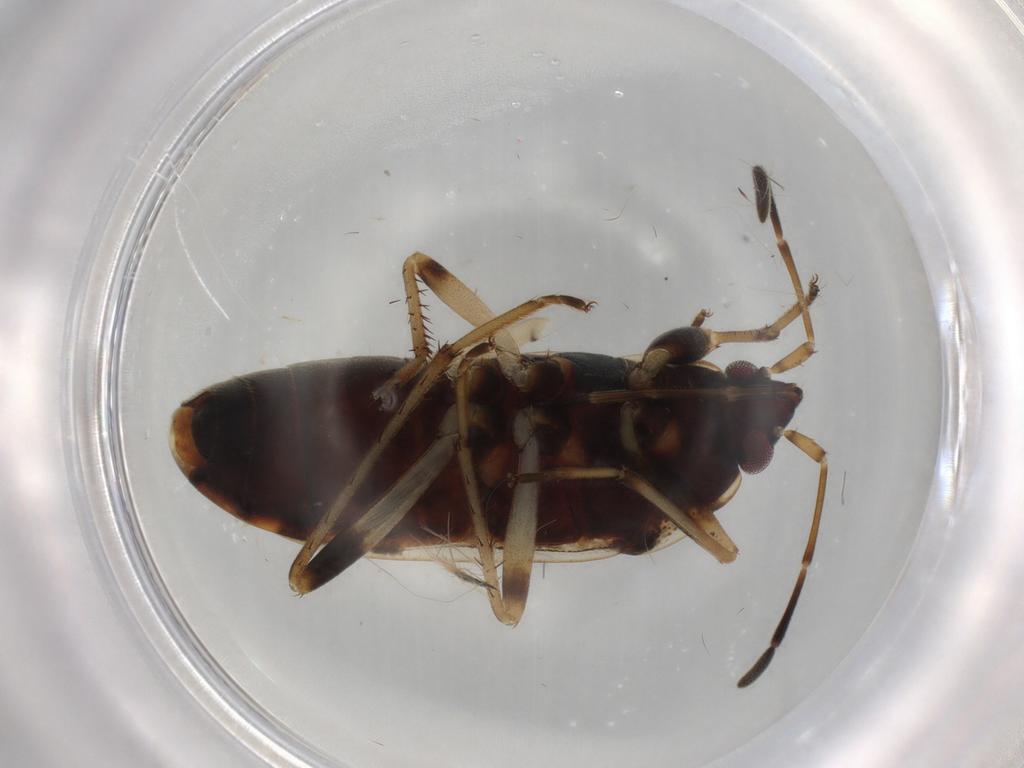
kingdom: Animalia
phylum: Arthropoda
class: Insecta
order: Hemiptera
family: Rhyparochromidae
